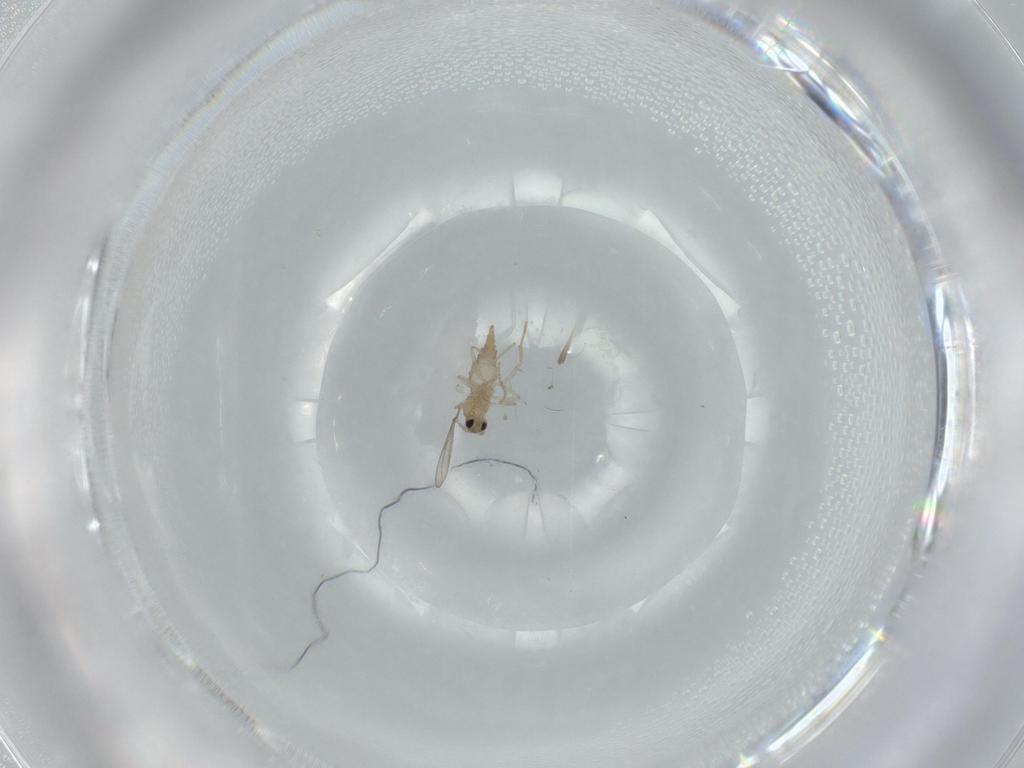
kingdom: Animalia
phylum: Arthropoda
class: Insecta
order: Diptera
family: Cecidomyiidae
